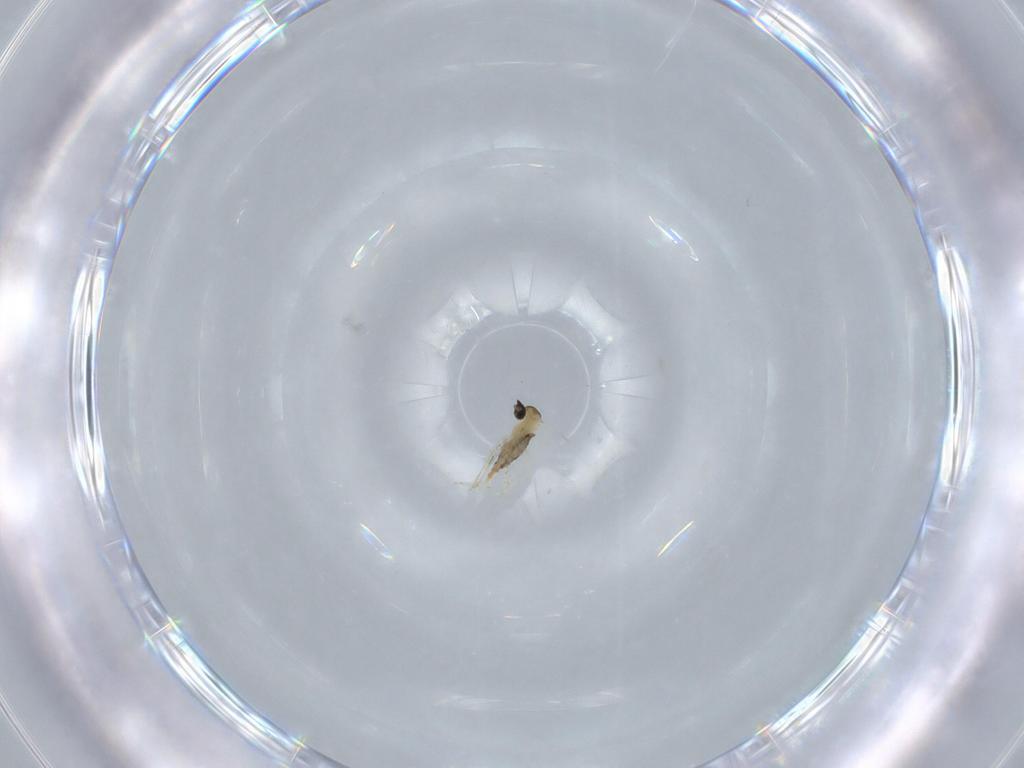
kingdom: Animalia
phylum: Arthropoda
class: Insecta
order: Diptera
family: Cecidomyiidae
